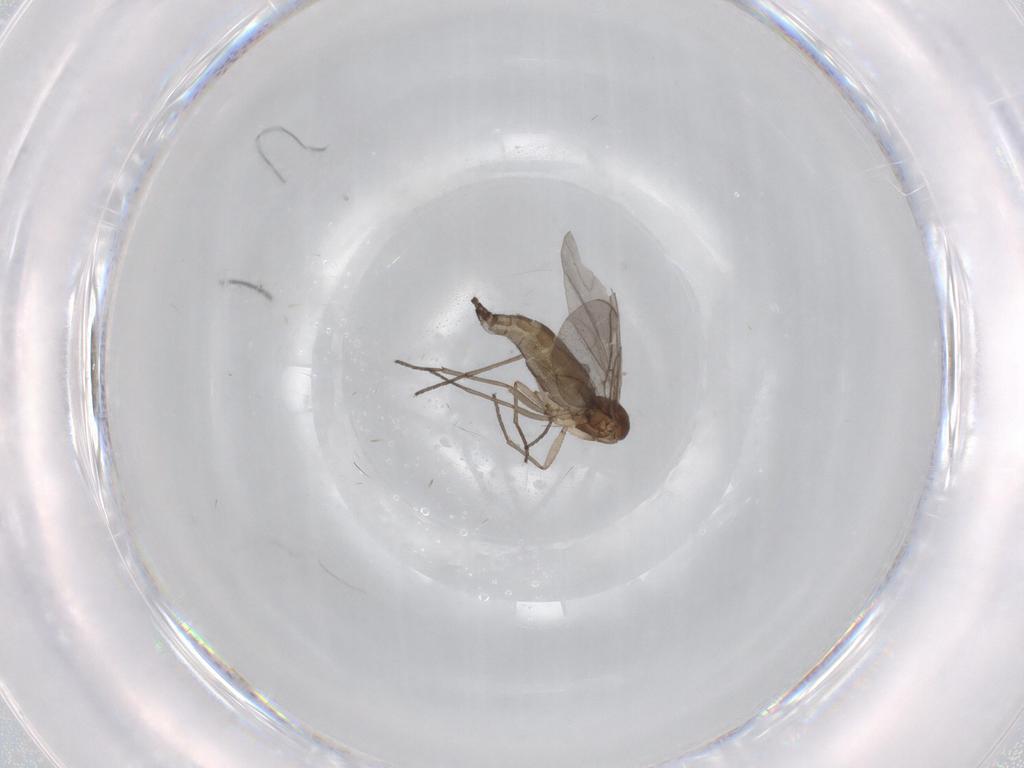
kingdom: Animalia
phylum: Arthropoda
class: Insecta
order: Diptera
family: Sciaridae
